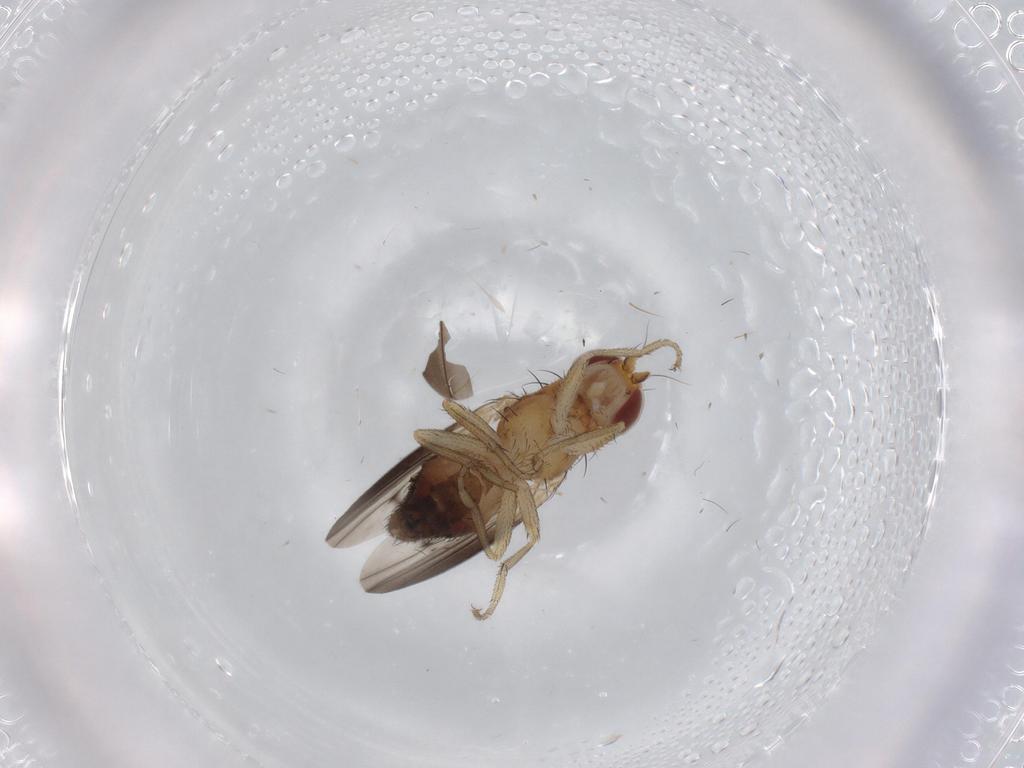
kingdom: Animalia
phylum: Arthropoda
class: Insecta
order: Diptera
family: Heleomyzidae
